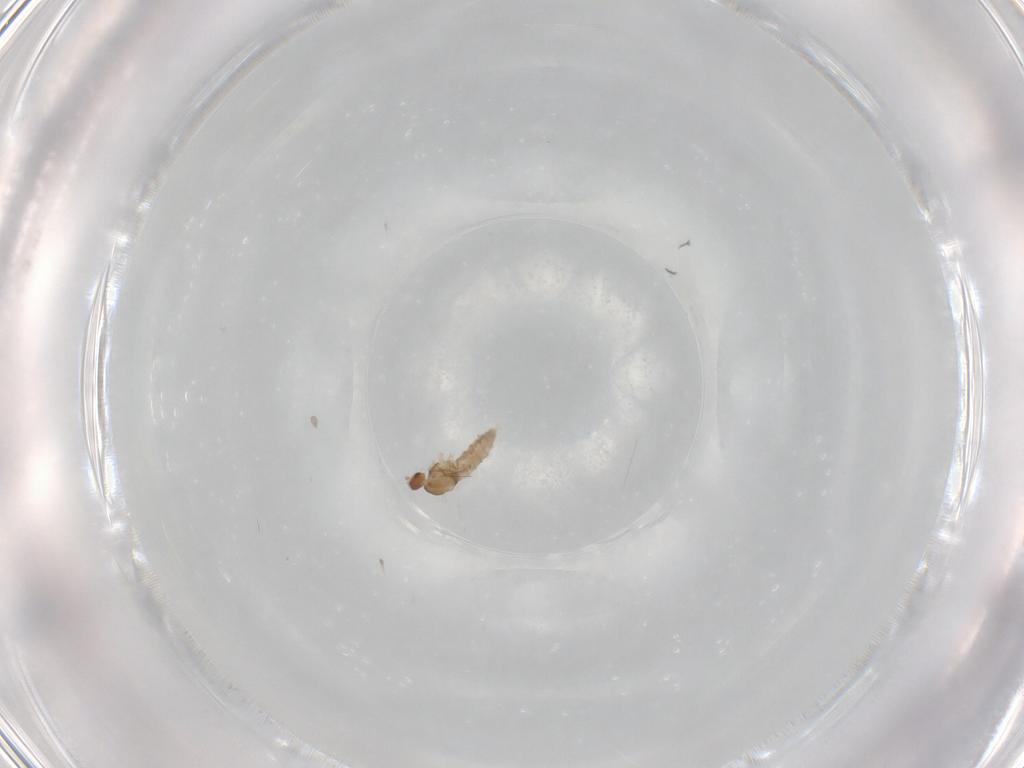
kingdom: Animalia
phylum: Arthropoda
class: Insecta
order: Diptera
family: Cecidomyiidae
